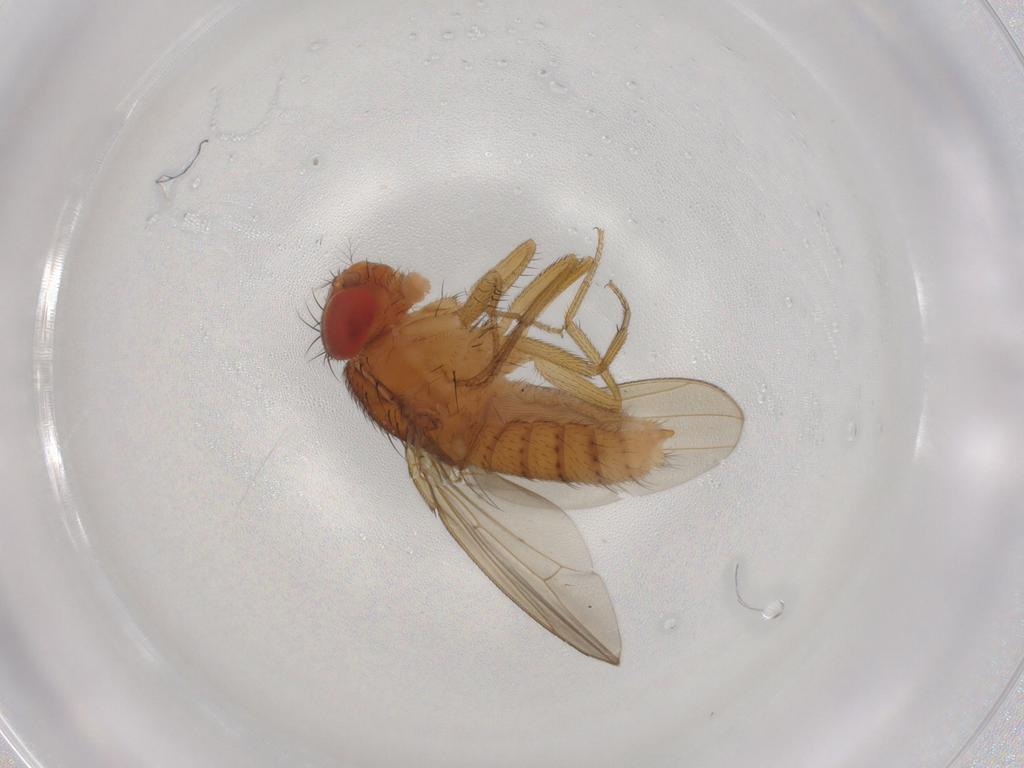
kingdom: Animalia
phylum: Arthropoda
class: Insecta
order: Diptera
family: Drosophilidae
